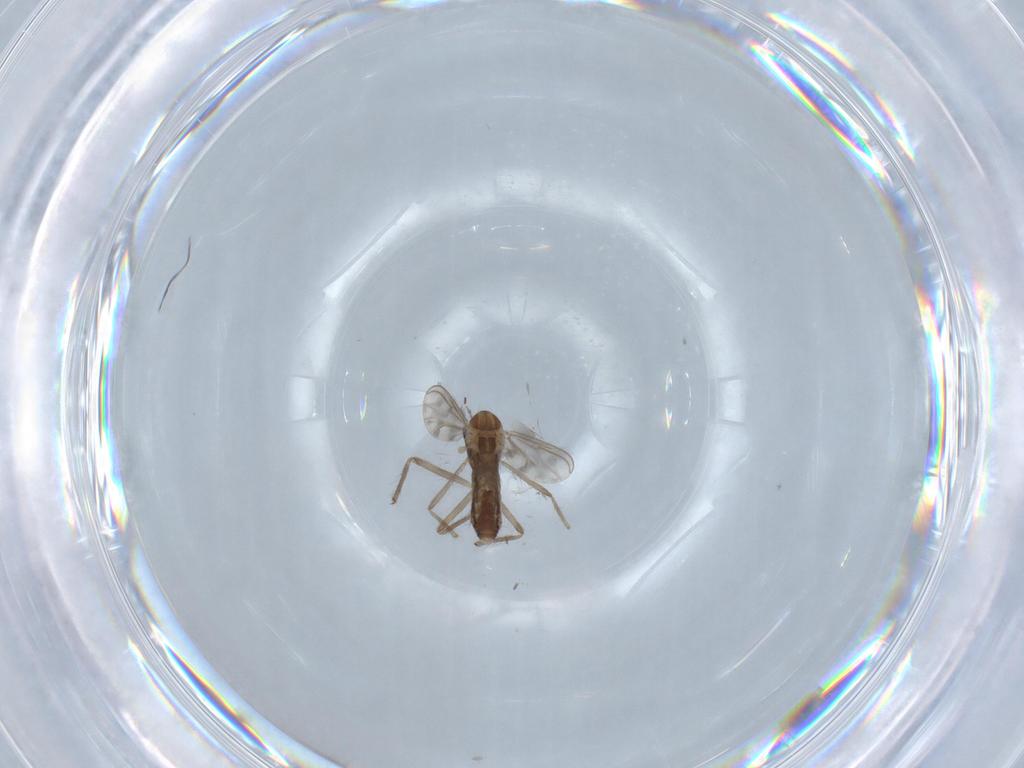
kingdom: Animalia
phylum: Arthropoda
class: Insecta
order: Diptera
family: Chironomidae
